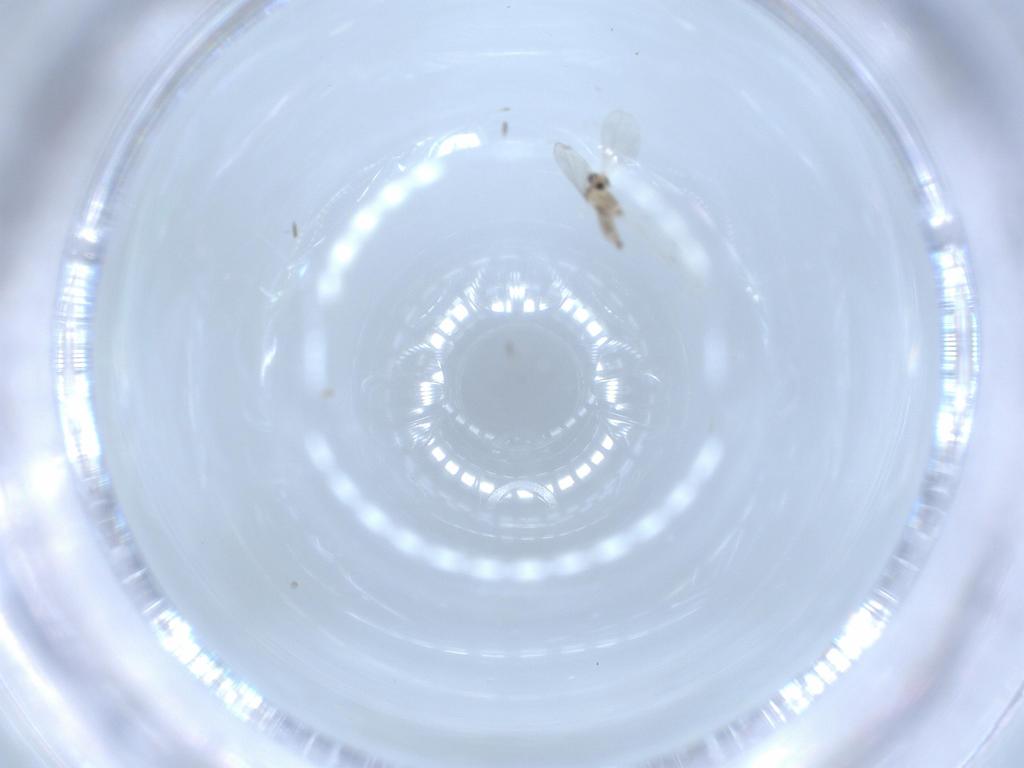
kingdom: Animalia
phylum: Arthropoda
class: Insecta
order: Diptera
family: Cecidomyiidae
